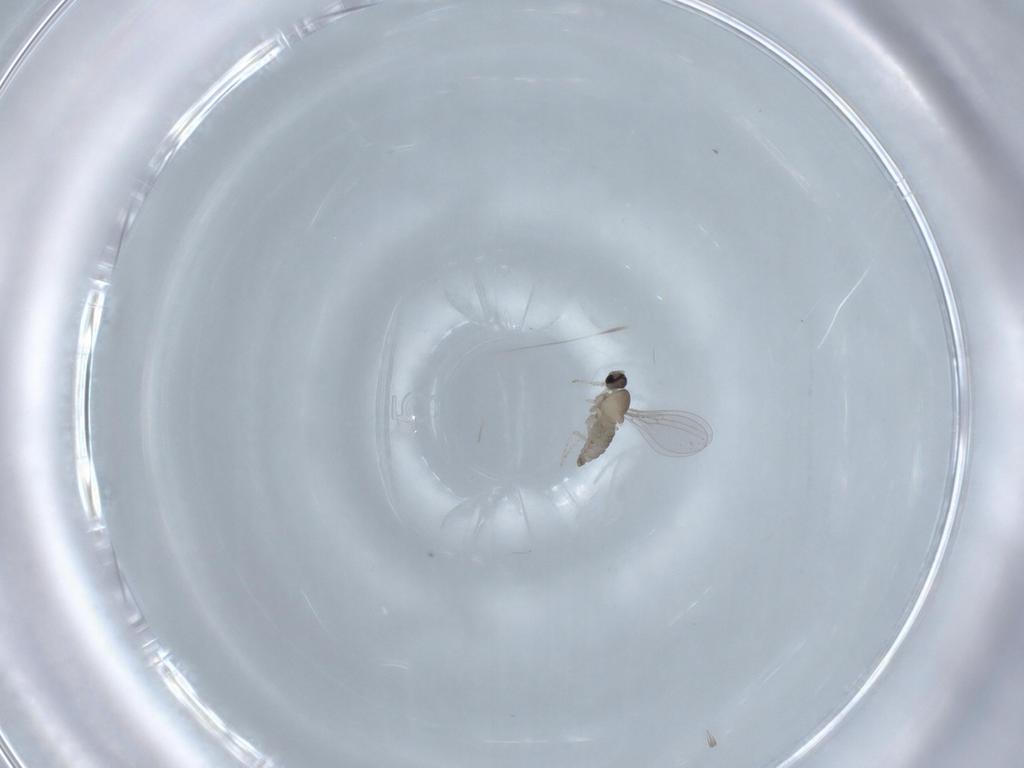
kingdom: Animalia
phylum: Arthropoda
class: Insecta
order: Diptera
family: Cecidomyiidae
